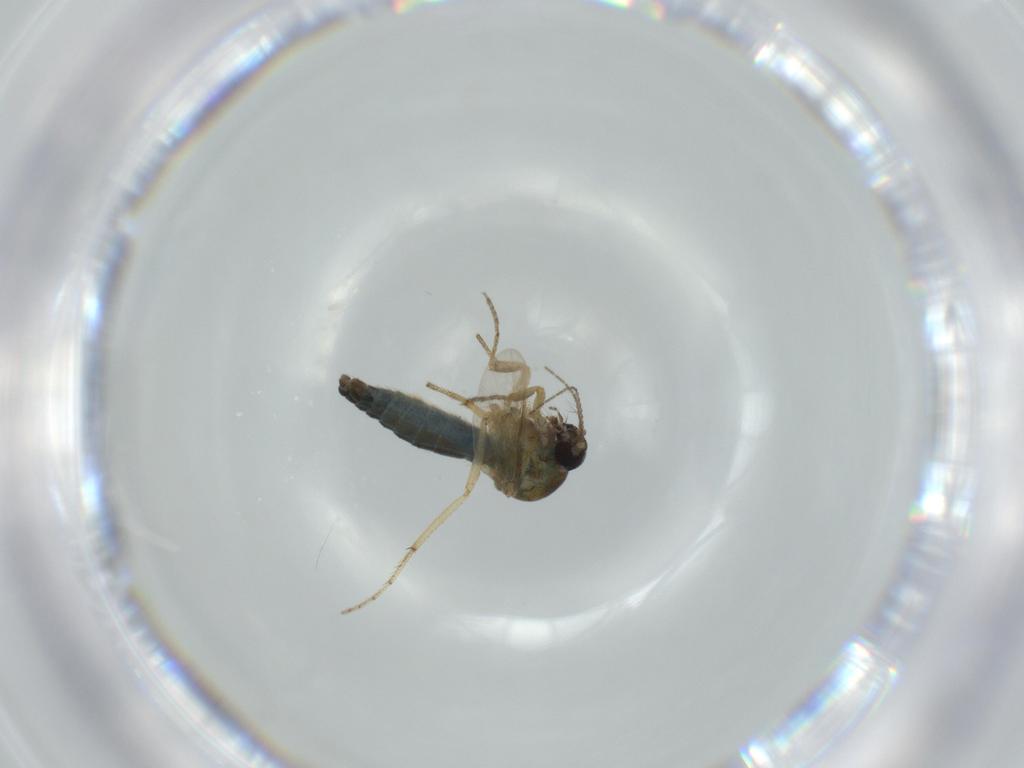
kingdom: Animalia
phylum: Arthropoda
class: Insecta
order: Diptera
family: Ceratopogonidae
